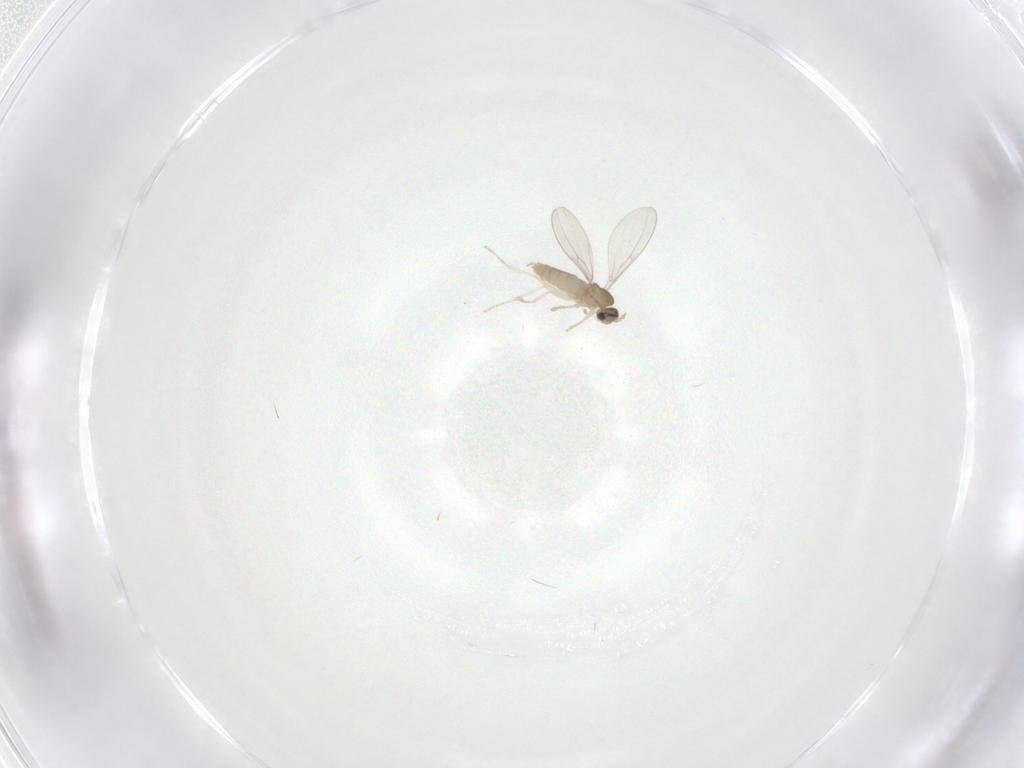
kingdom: Animalia
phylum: Arthropoda
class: Insecta
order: Diptera
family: Cecidomyiidae
